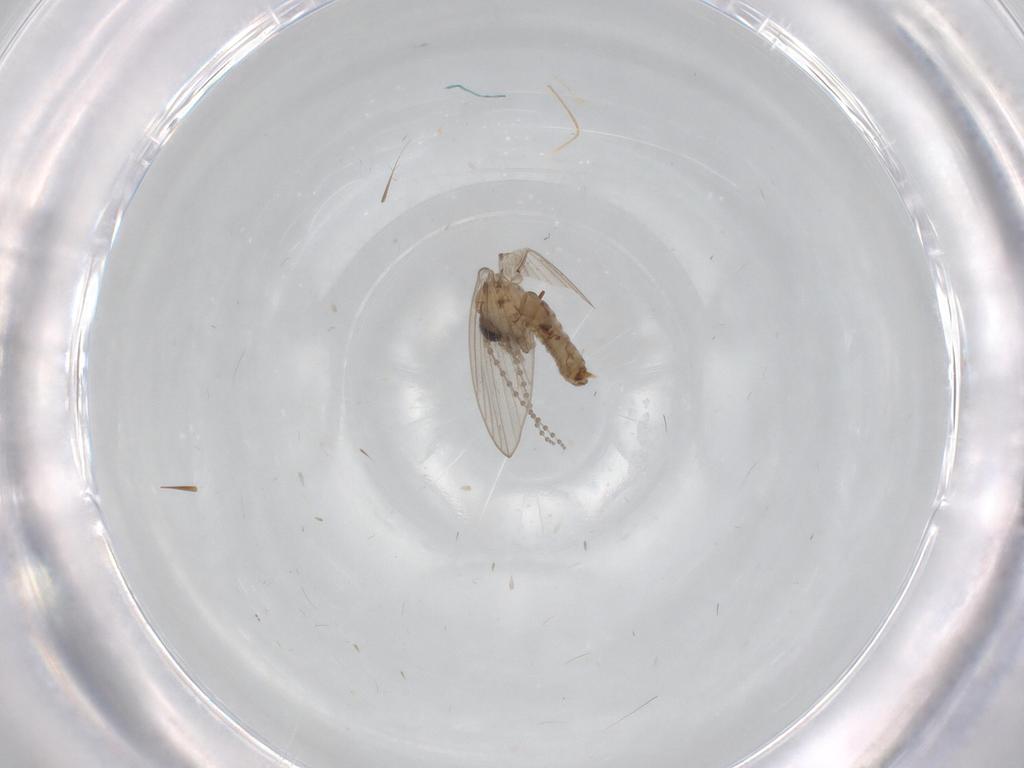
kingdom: Animalia
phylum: Arthropoda
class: Insecta
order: Diptera
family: Psychodidae
